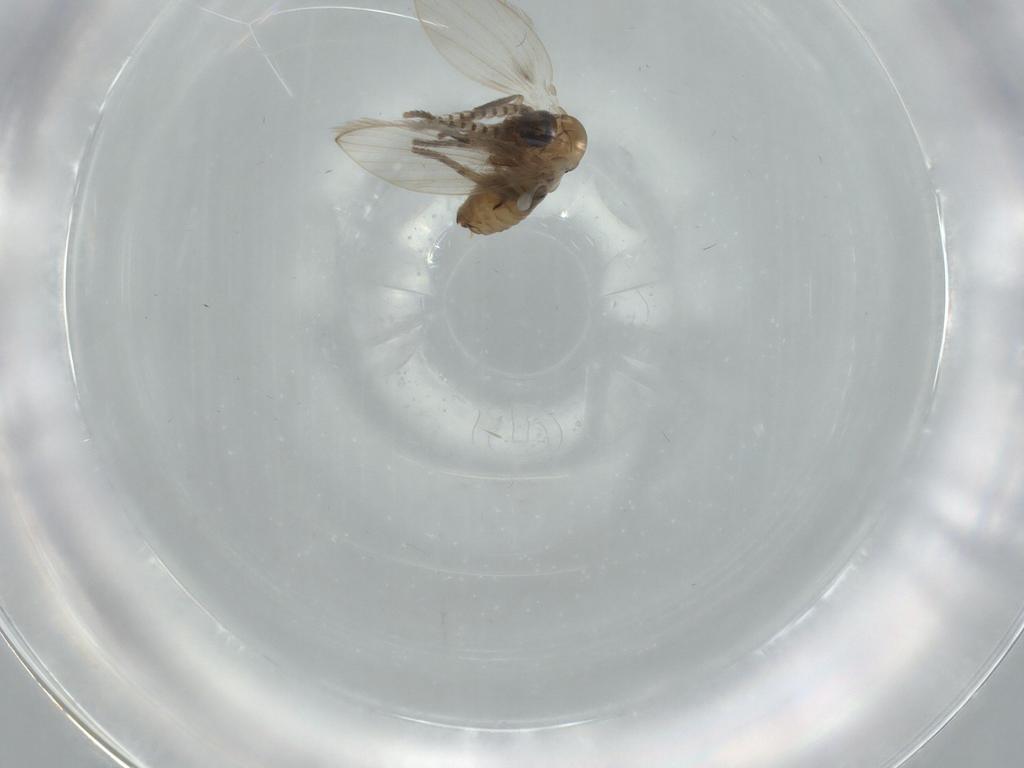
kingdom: Animalia
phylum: Arthropoda
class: Insecta
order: Diptera
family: Psychodidae
